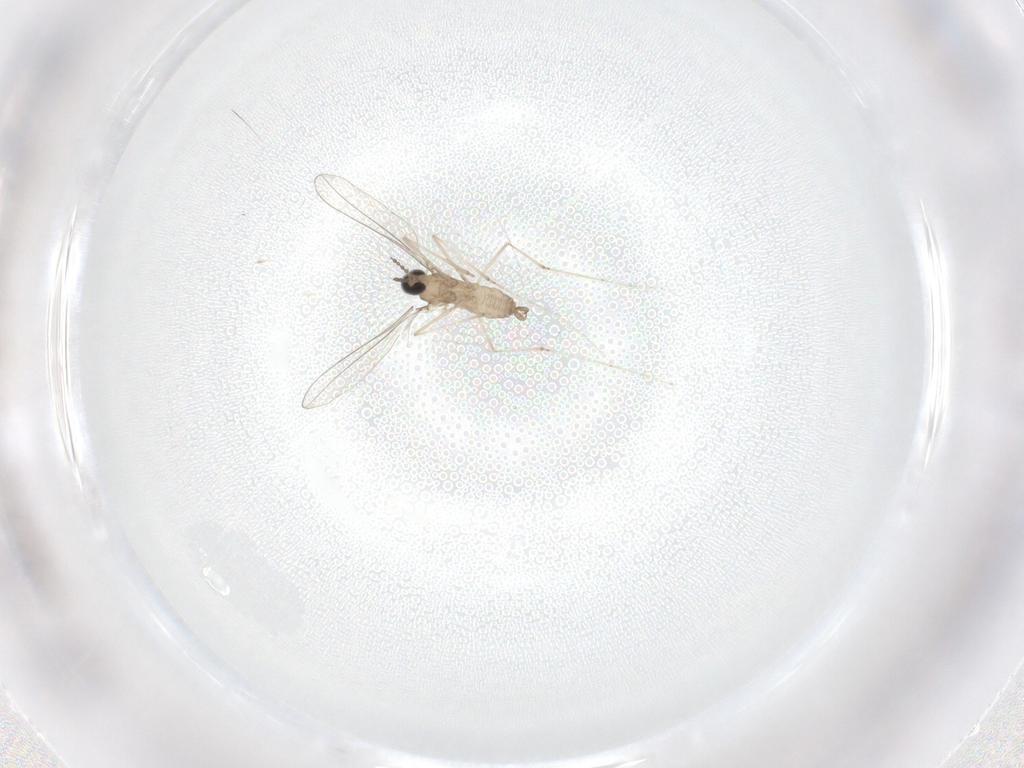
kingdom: Animalia
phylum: Arthropoda
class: Insecta
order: Diptera
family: Cecidomyiidae
